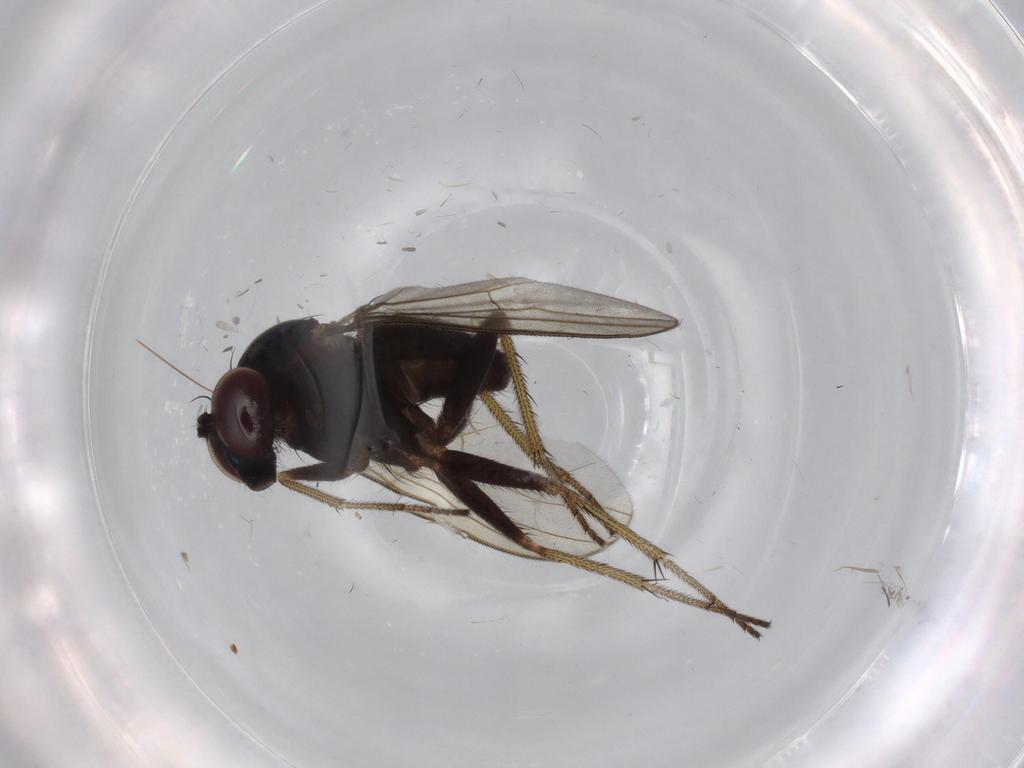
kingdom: Animalia
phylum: Arthropoda
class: Insecta
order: Diptera
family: Dolichopodidae
